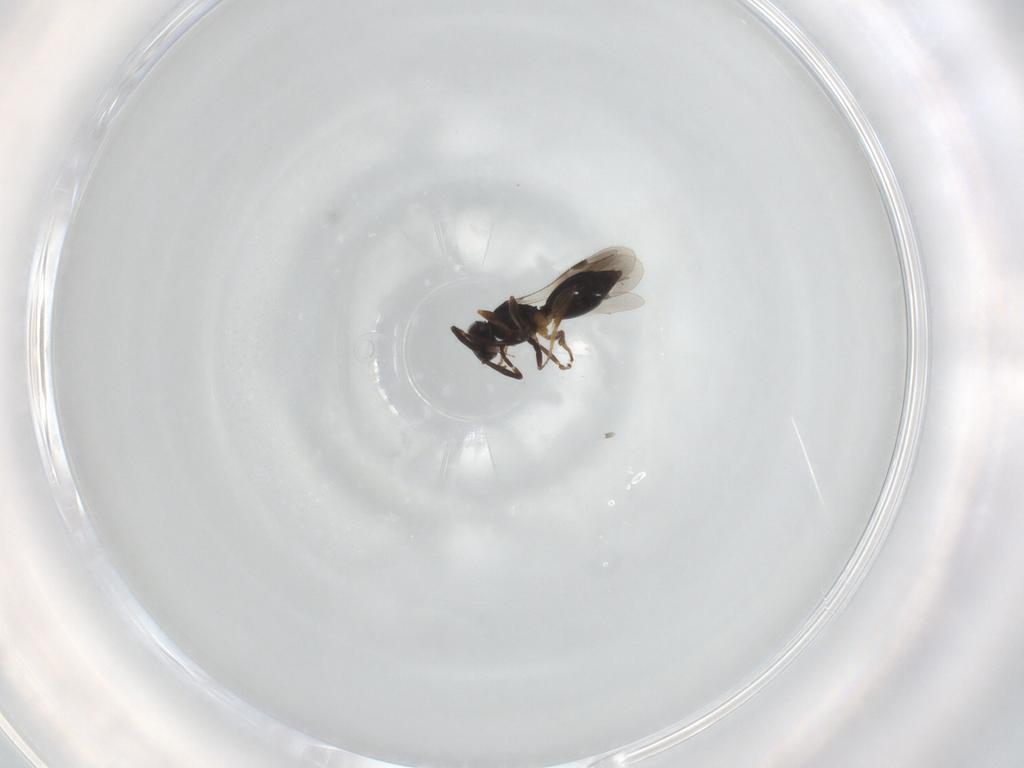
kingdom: Animalia
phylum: Arthropoda
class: Insecta
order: Hymenoptera
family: Megaspilidae
